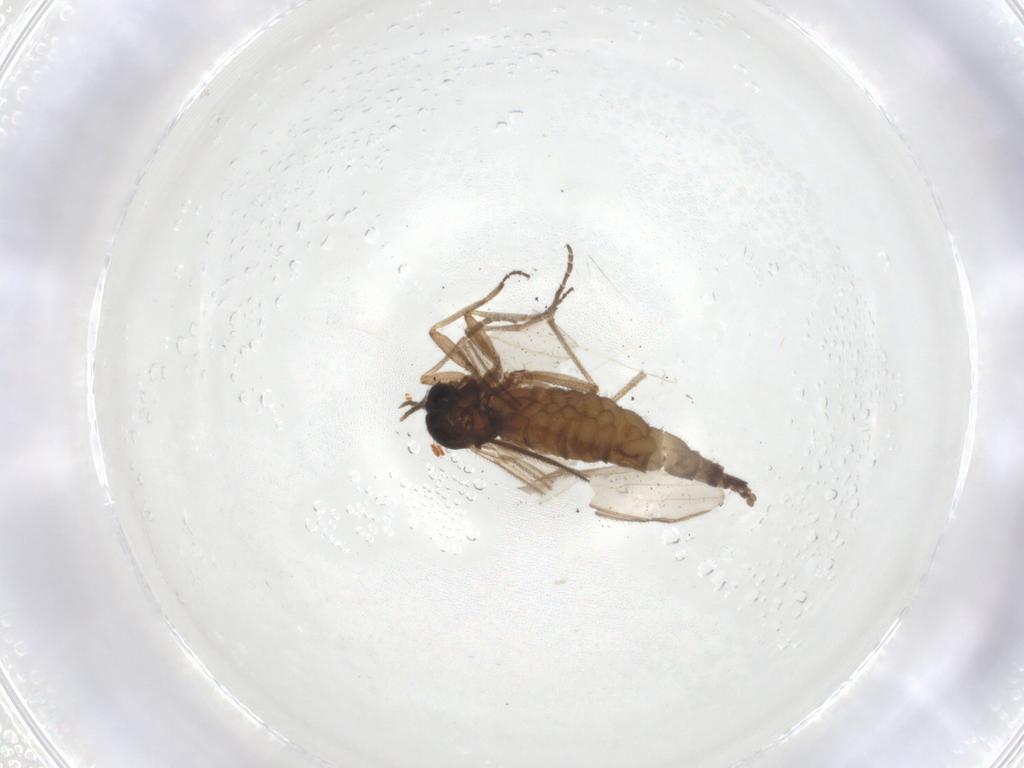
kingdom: Animalia
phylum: Arthropoda
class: Insecta
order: Diptera
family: Sciaridae
